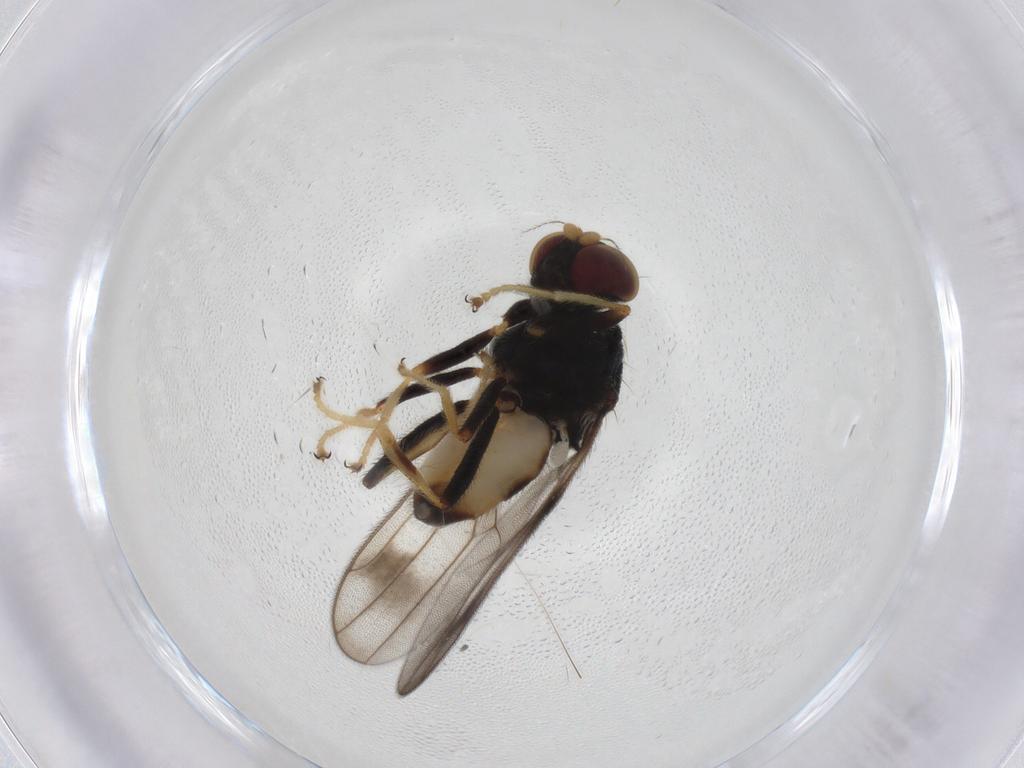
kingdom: Animalia
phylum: Arthropoda
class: Insecta
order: Diptera
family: Chloropidae
